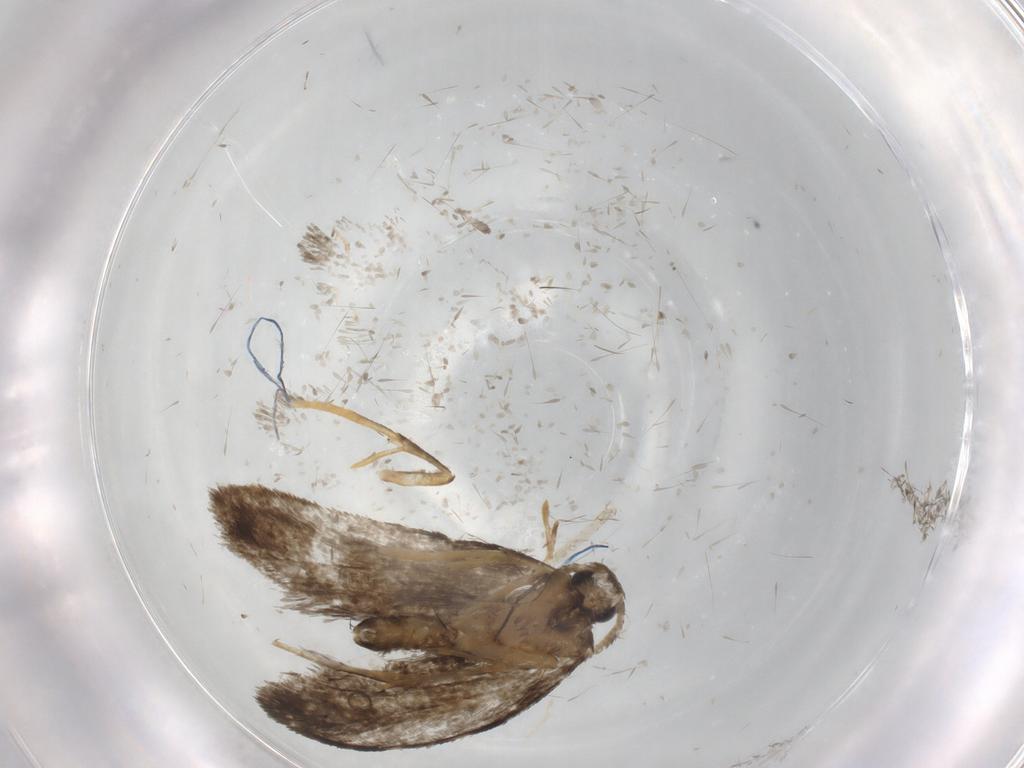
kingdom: Animalia
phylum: Arthropoda
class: Insecta
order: Lepidoptera
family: Psychidae
